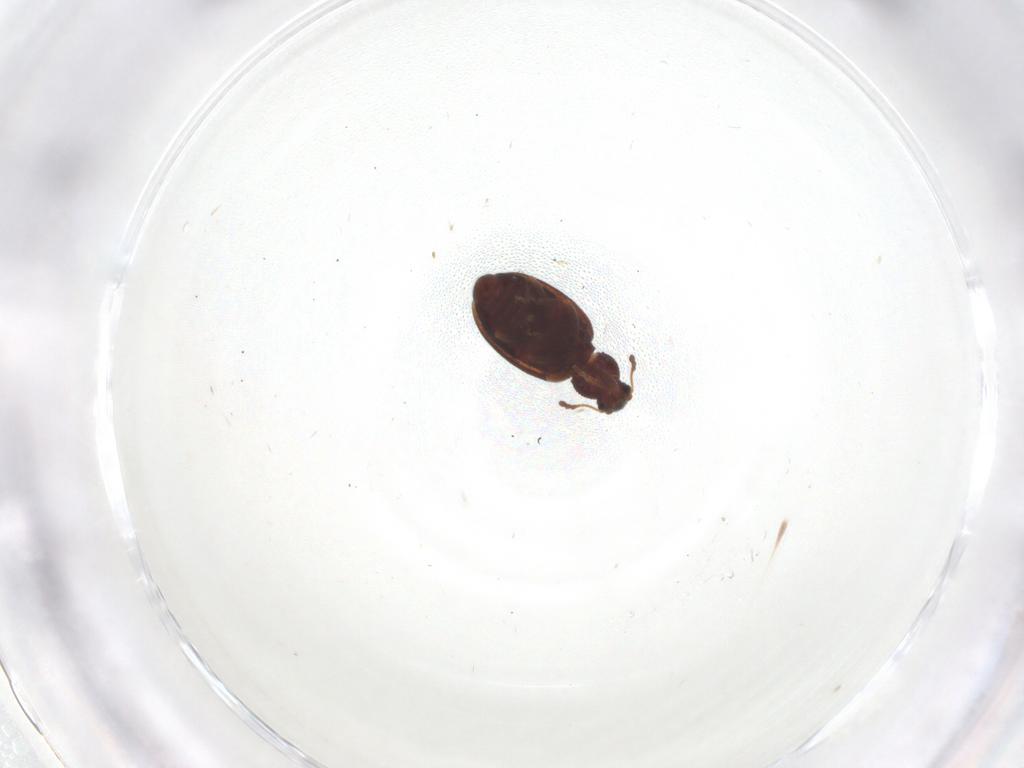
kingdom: Animalia
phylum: Arthropoda
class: Insecta
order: Coleoptera
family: Latridiidae
